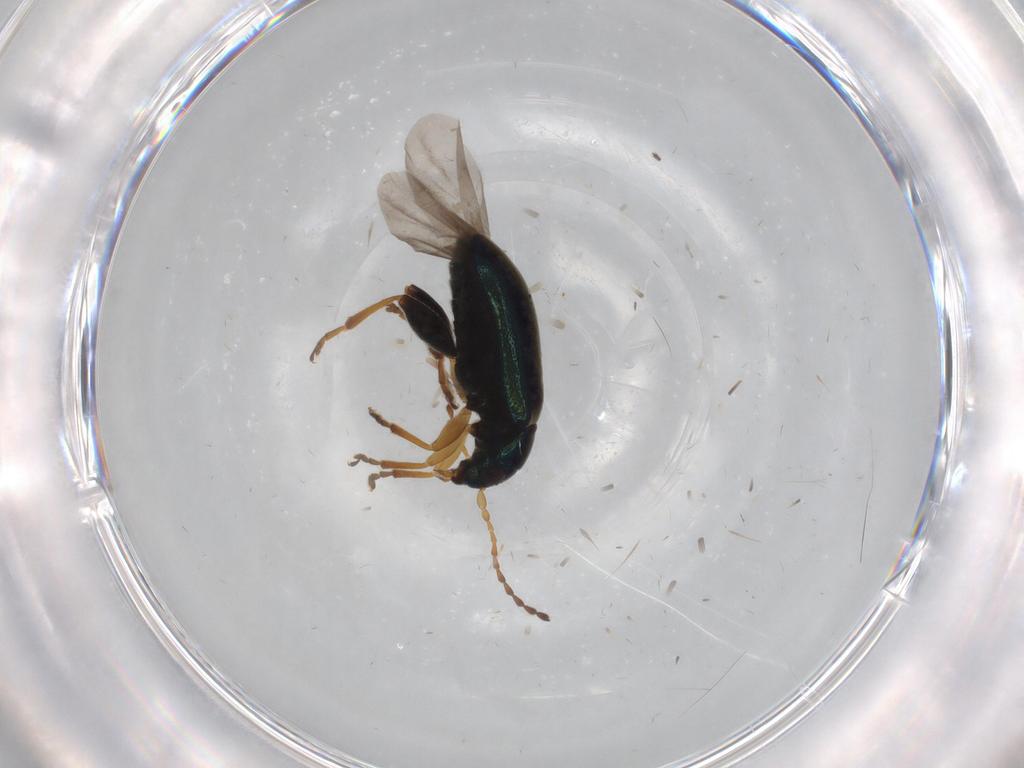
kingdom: Animalia
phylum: Arthropoda
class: Insecta
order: Coleoptera
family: Chrysomelidae
